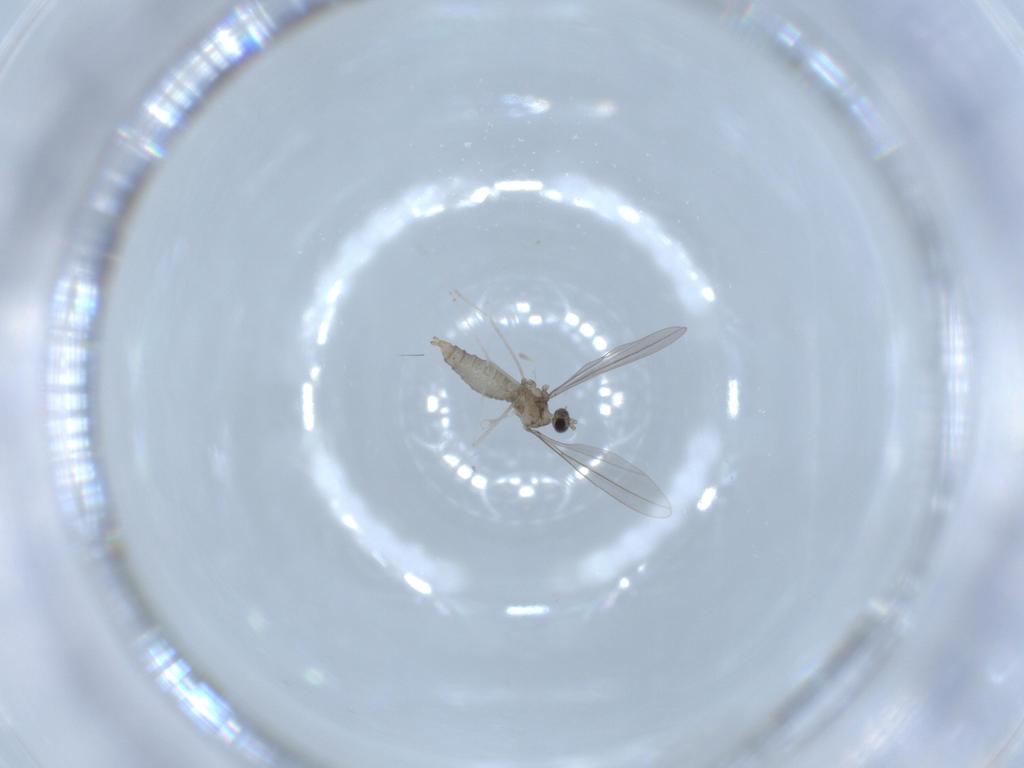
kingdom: Animalia
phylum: Arthropoda
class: Insecta
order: Diptera
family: Cecidomyiidae
